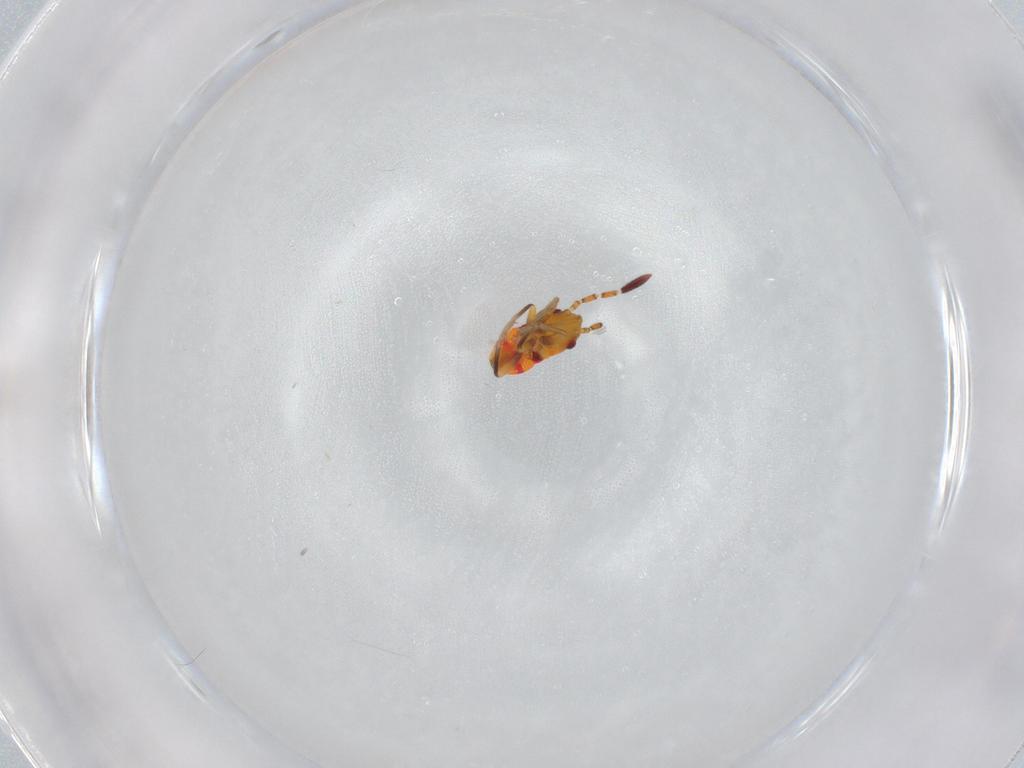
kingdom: Animalia
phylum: Arthropoda
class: Insecta
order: Hemiptera
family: Rhyparochromidae
